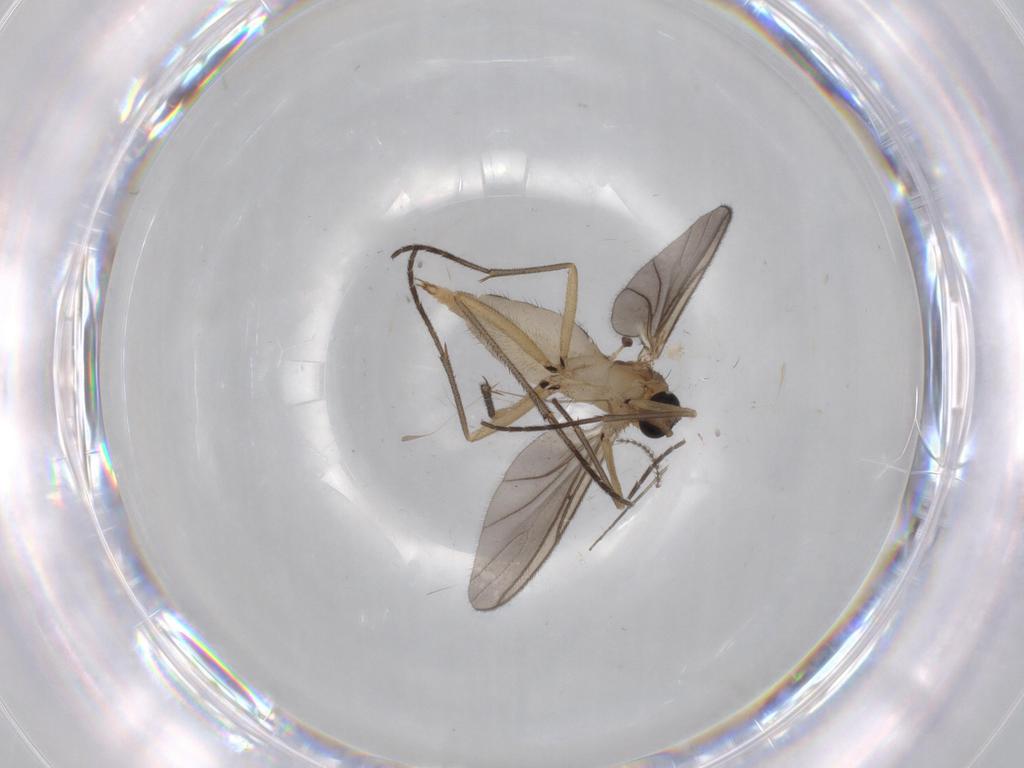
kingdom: Animalia
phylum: Arthropoda
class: Insecta
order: Diptera
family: Sciaridae
